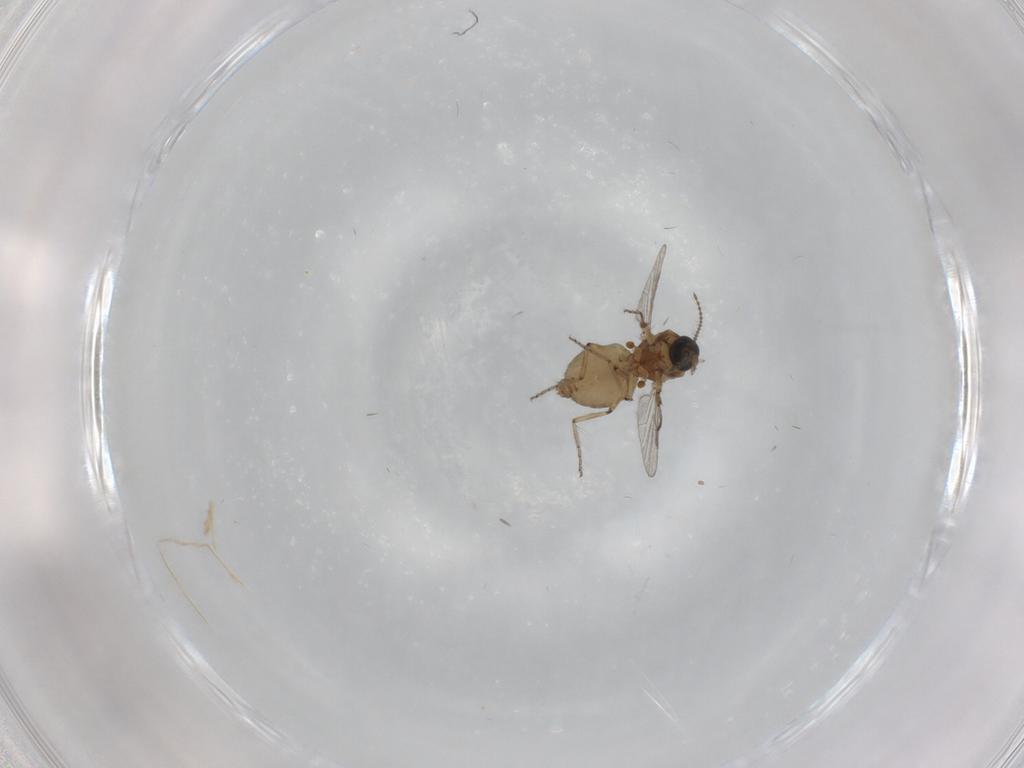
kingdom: Animalia
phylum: Arthropoda
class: Insecta
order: Diptera
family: Ceratopogonidae
